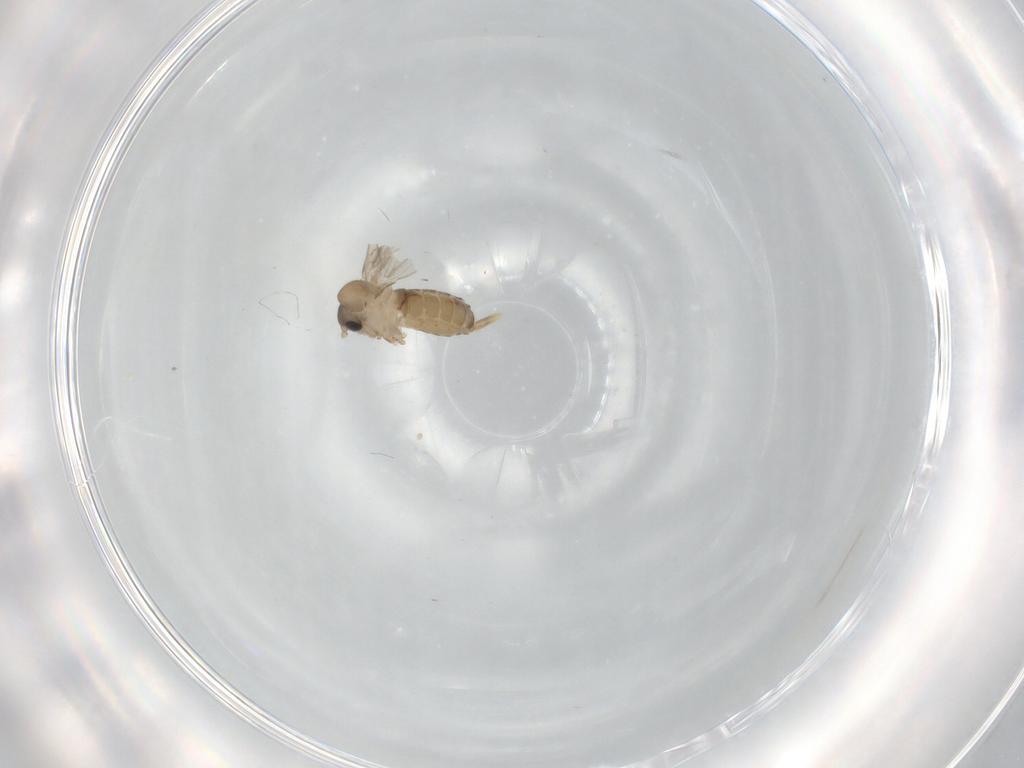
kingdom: Animalia
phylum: Arthropoda
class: Insecta
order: Diptera
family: Psychodidae
